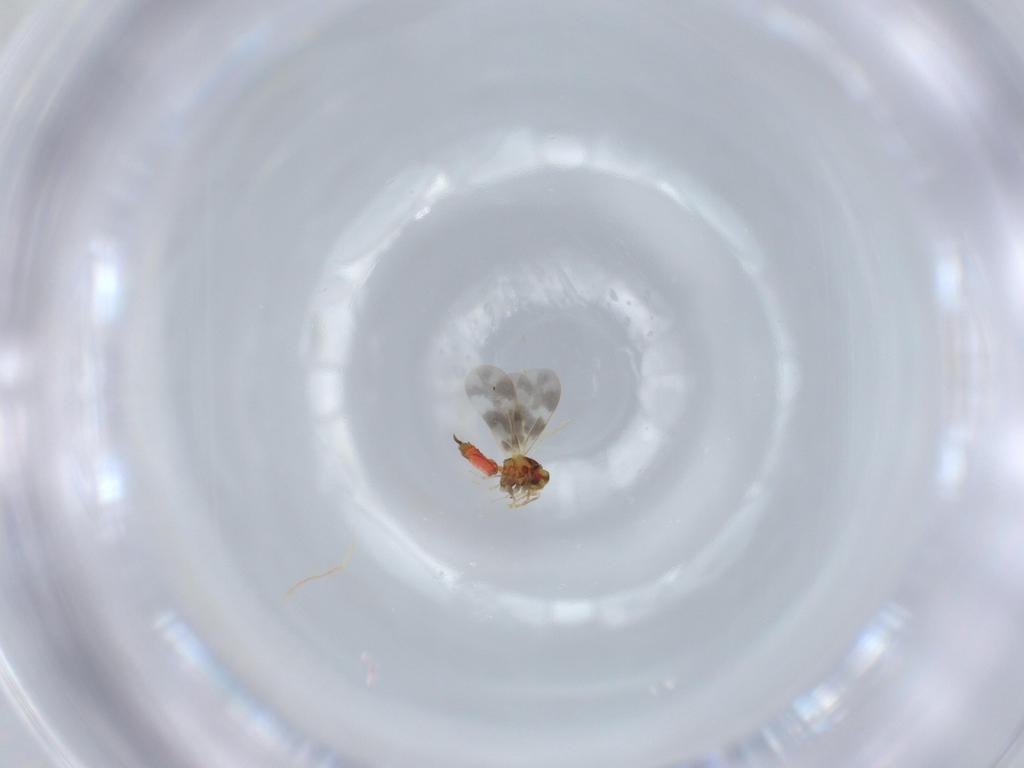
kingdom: Animalia
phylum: Arthropoda
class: Insecta
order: Hemiptera
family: Aleyrodidae
